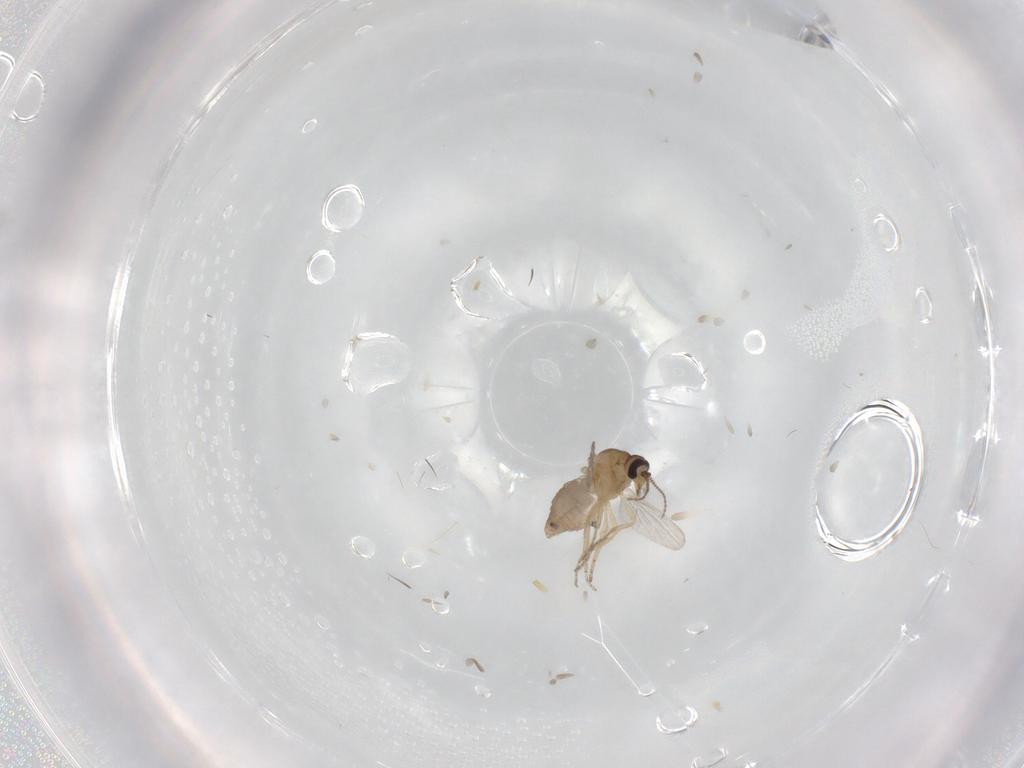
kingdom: Animalia
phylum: Arthropoda
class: Insecta
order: Diptera
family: Ceratopogonidae
